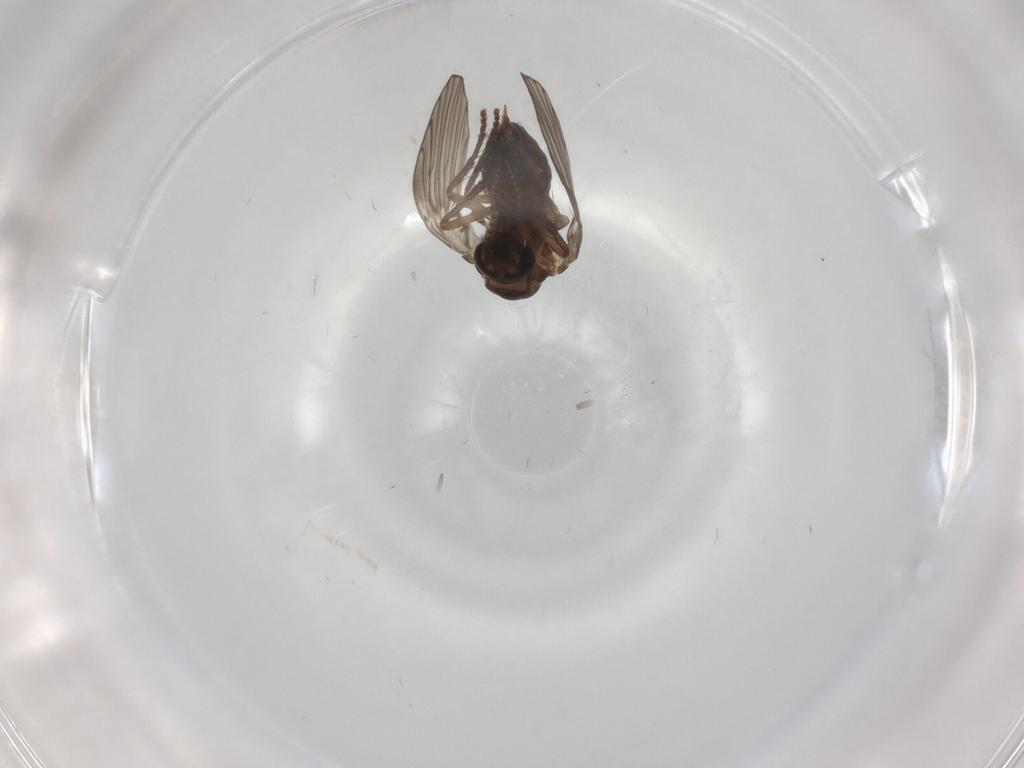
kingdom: Animalia
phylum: Arthropoda
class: Insecta
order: Diptera
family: Psychodidae
